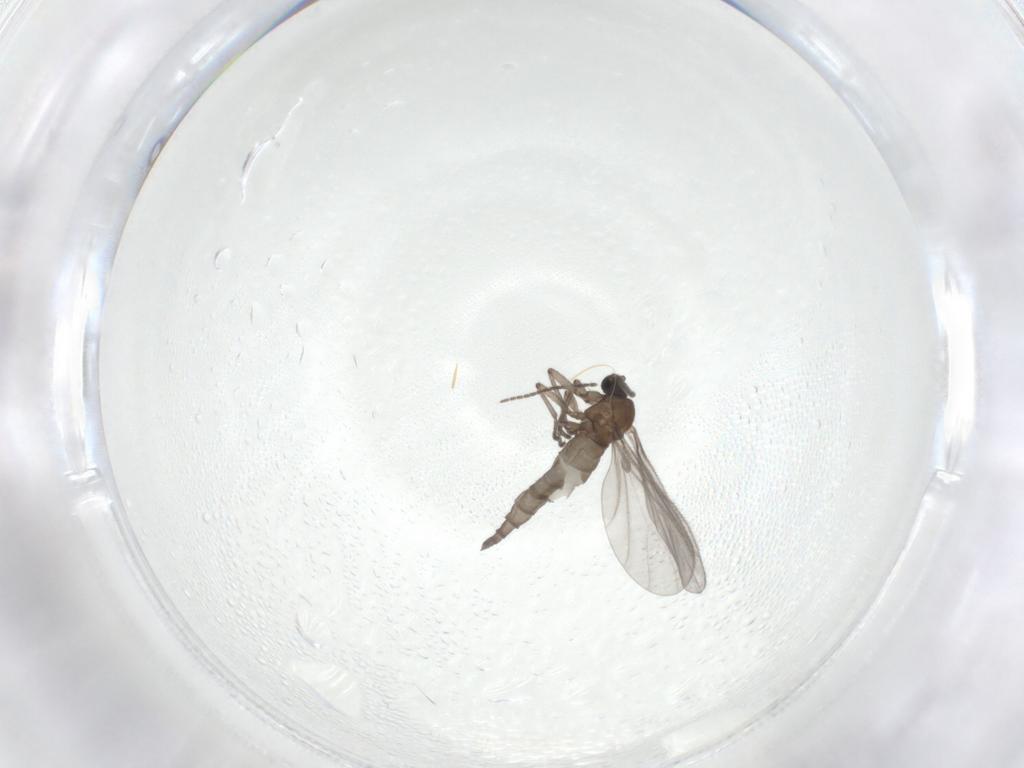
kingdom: Animalia
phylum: Arthropoda
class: Insecta
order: Diptera
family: Sciaridae
